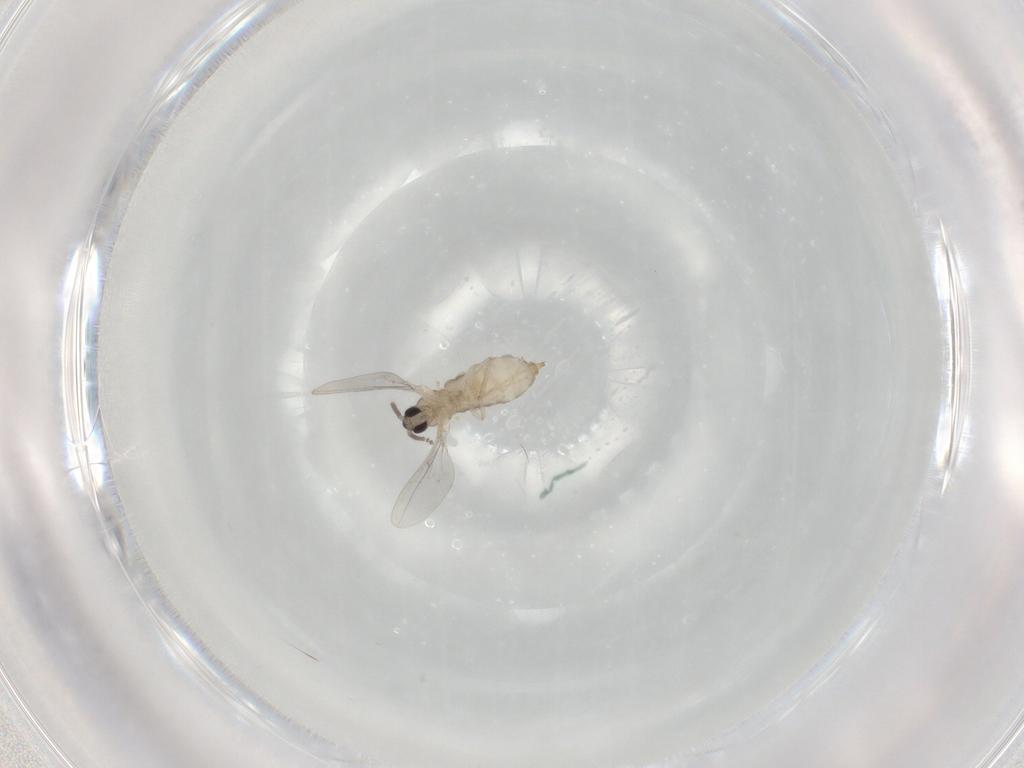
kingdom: Animalia
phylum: Arthropoda
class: Insecta
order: Diptera
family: Cecidomyiidae
